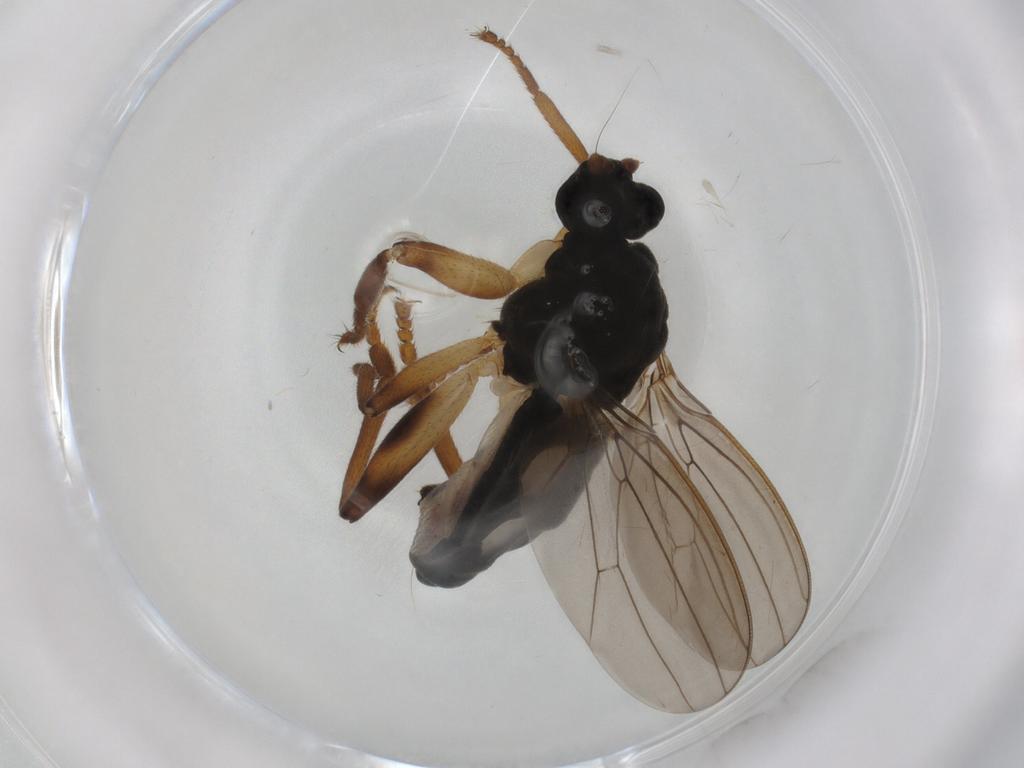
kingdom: Animalia
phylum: Arthropoda
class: Insecta
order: Diptera
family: Sphaeroceridae
